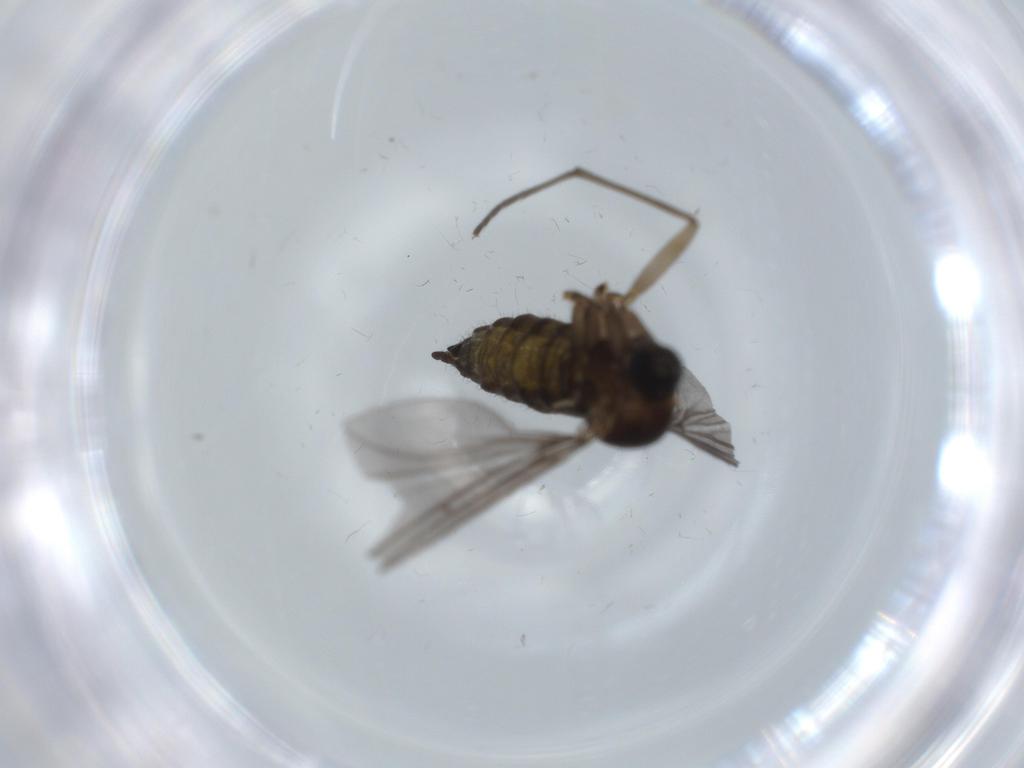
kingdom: Animalia
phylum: Arthropoda
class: Insecta
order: Diptera
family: Sciaridae
